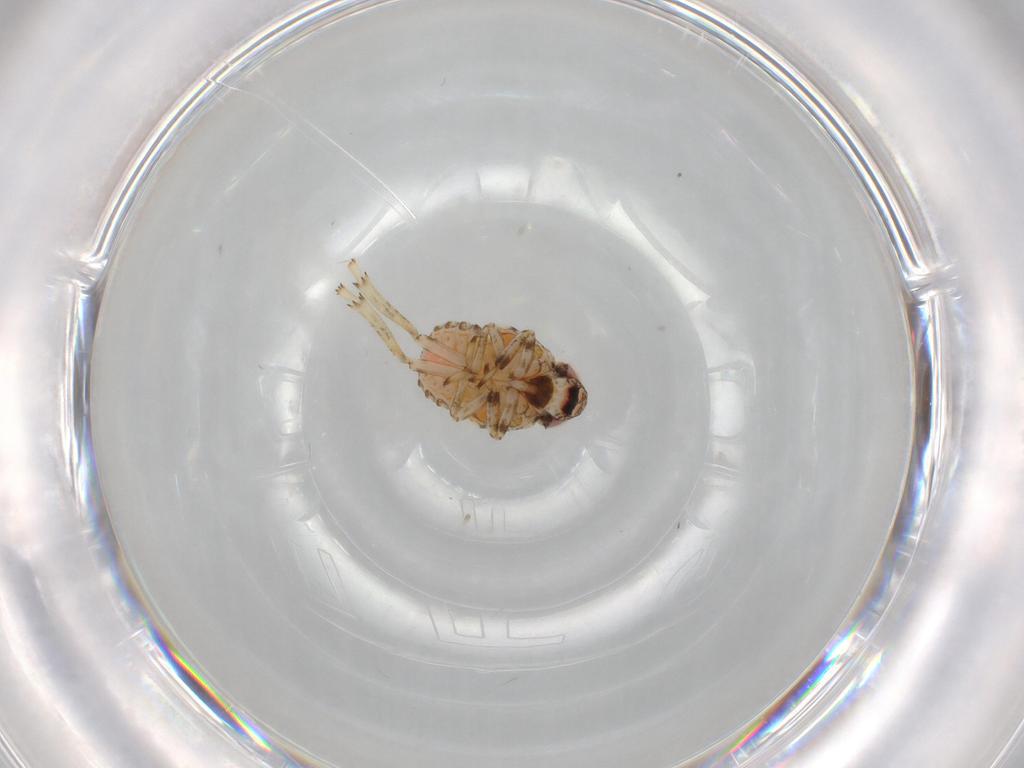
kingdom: Animalia
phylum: Arthropoda
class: Insecta
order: Hemiptera
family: Issidae
